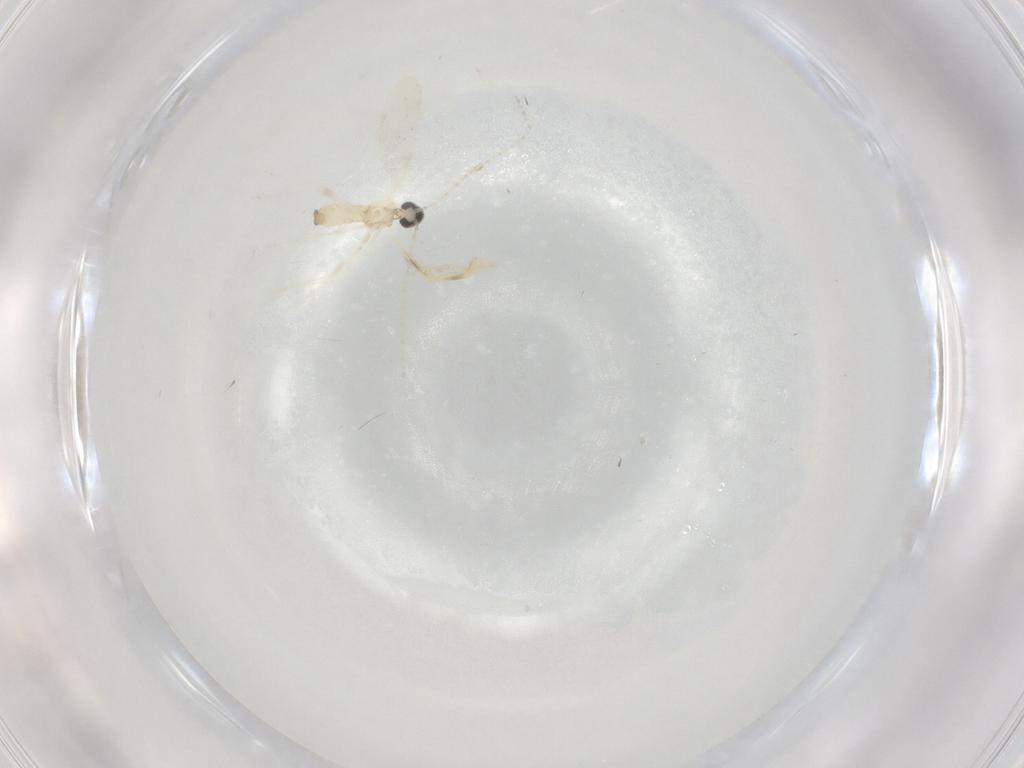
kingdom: Animalia
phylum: Arthropoda
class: Insecta
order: Diptera
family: Cecidomyiidae
